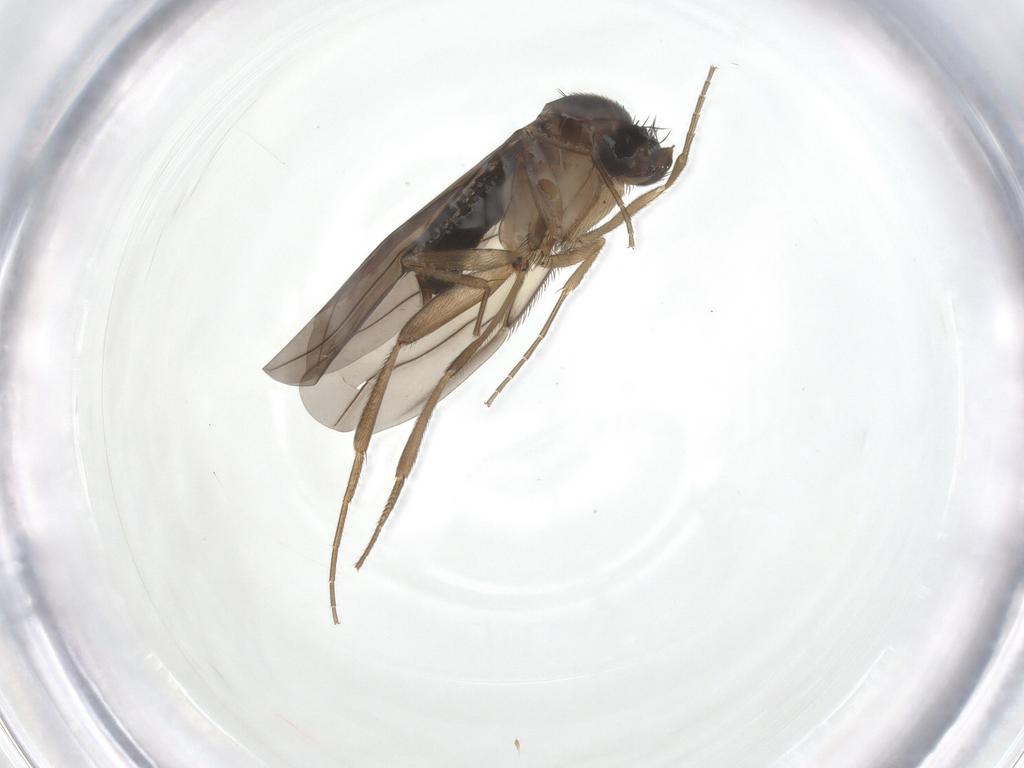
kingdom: Animalia
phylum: Arthropoda
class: Insecta
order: Diptera
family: Phoridae
